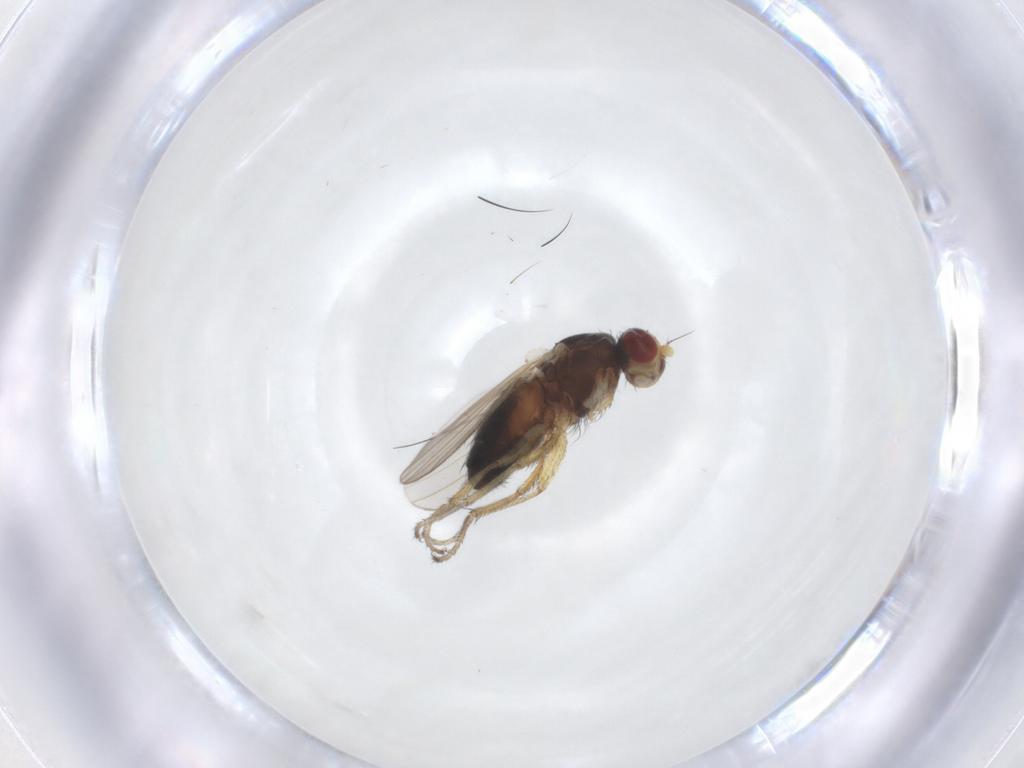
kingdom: Animalia
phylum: Arthropoda
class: Insecta
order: Diptera
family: Heleomyzidae
